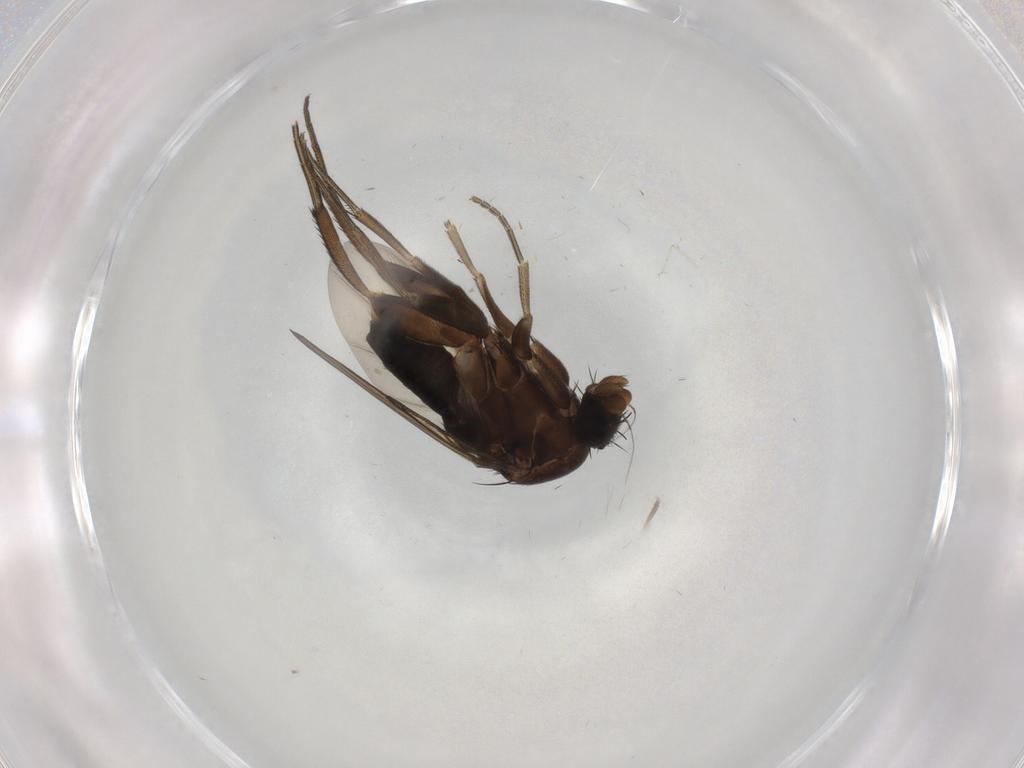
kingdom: Animalia
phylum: Arthropoda
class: Insecta
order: Diptera
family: Phoridae
